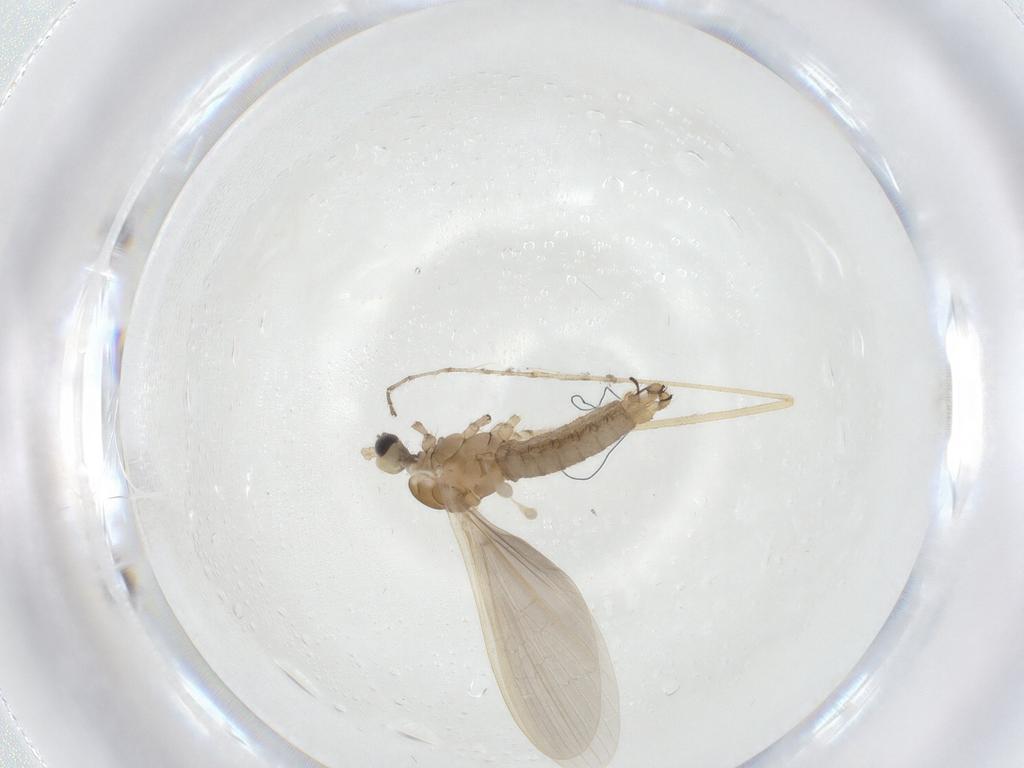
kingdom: Animalia
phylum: Arthropoda
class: Insecta
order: Diptera
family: Limoniidae
